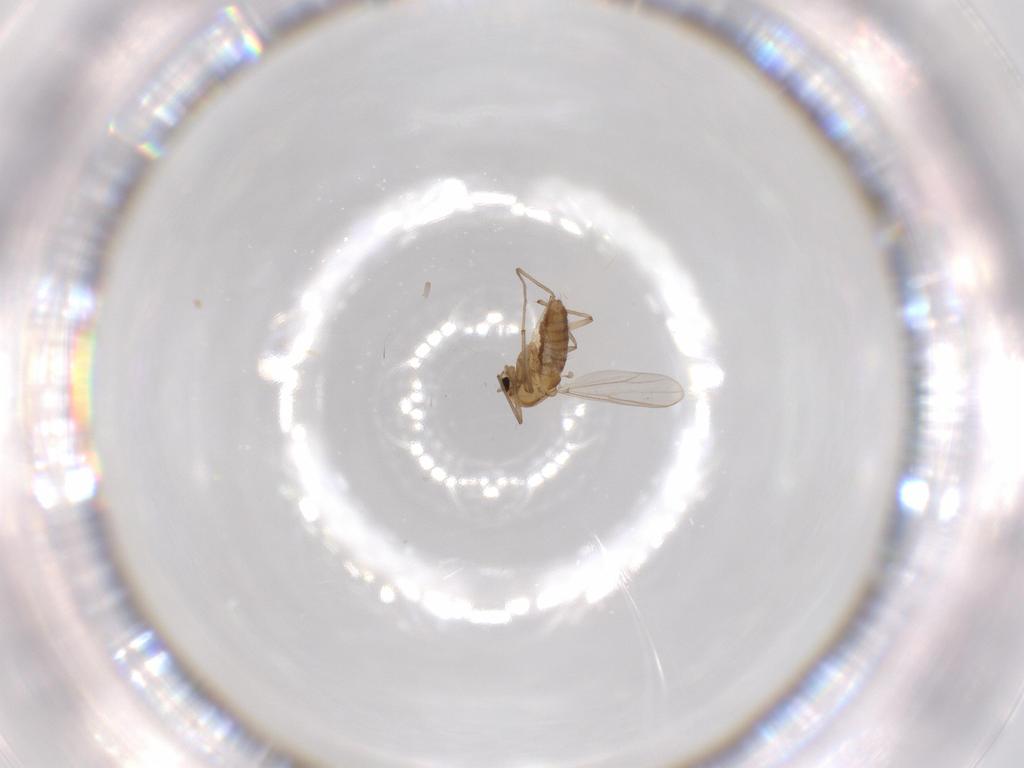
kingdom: Animalia
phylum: Arthropoda
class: Insecta
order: Diptera
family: Chironomidae
